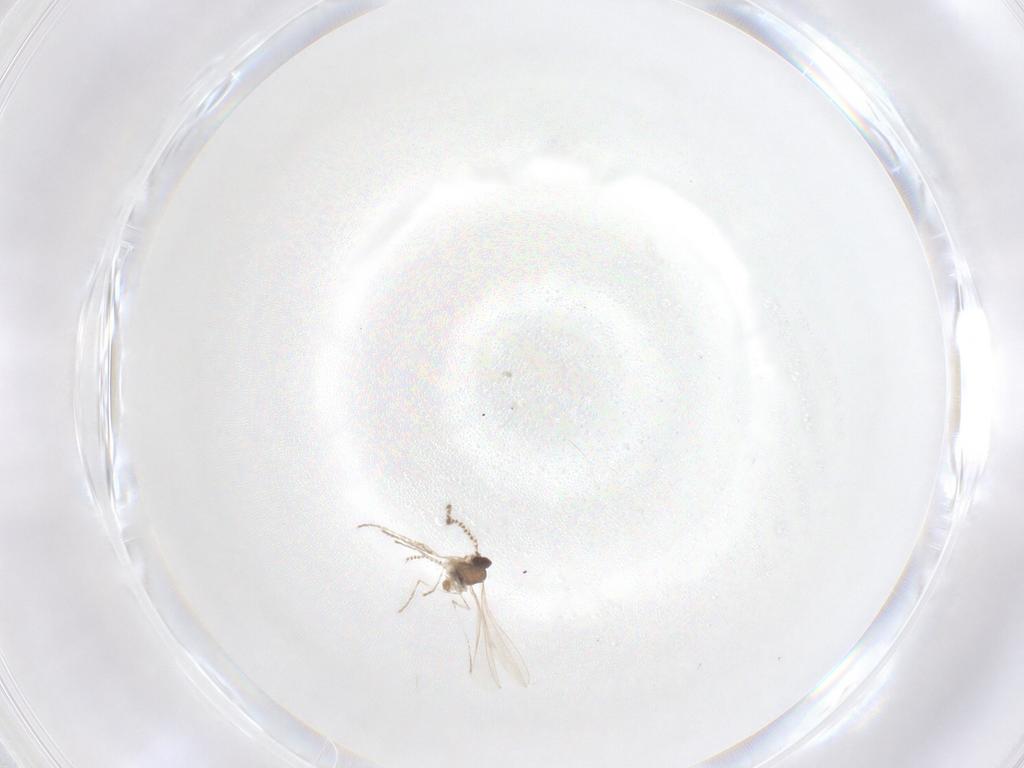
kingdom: Animalia
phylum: Arthropoda
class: Insecta
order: Diptera
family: Cecidomyiidae
